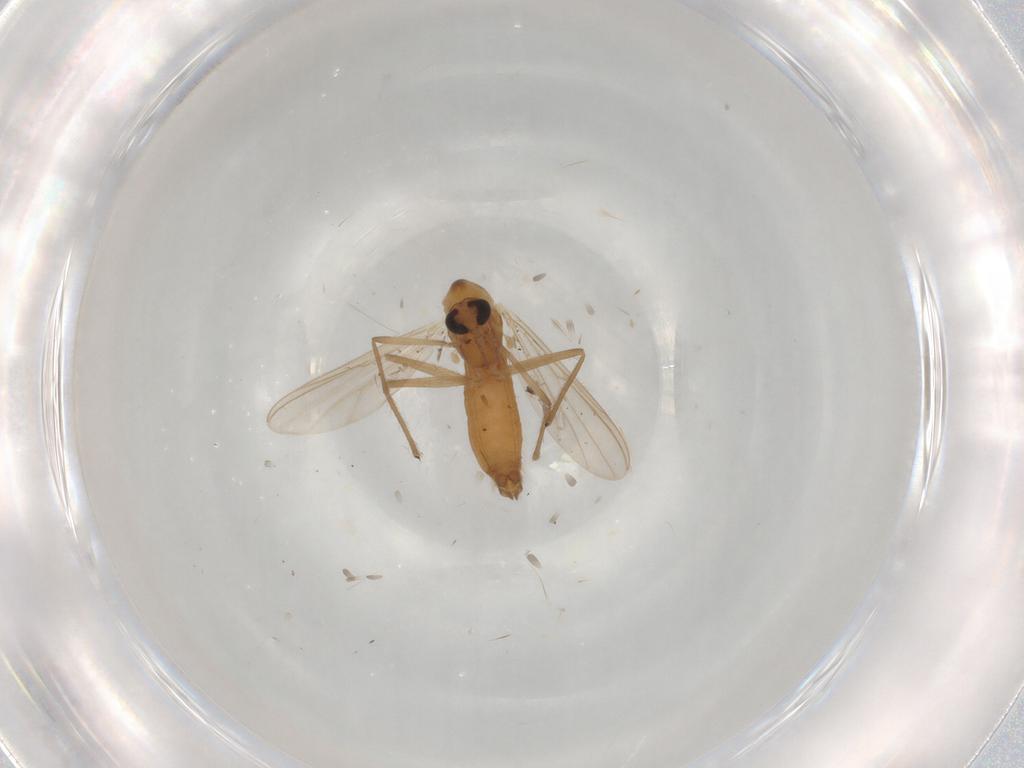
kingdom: Animalia
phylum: Arthropoda
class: Insecta
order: Diptera
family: Chironomidae
